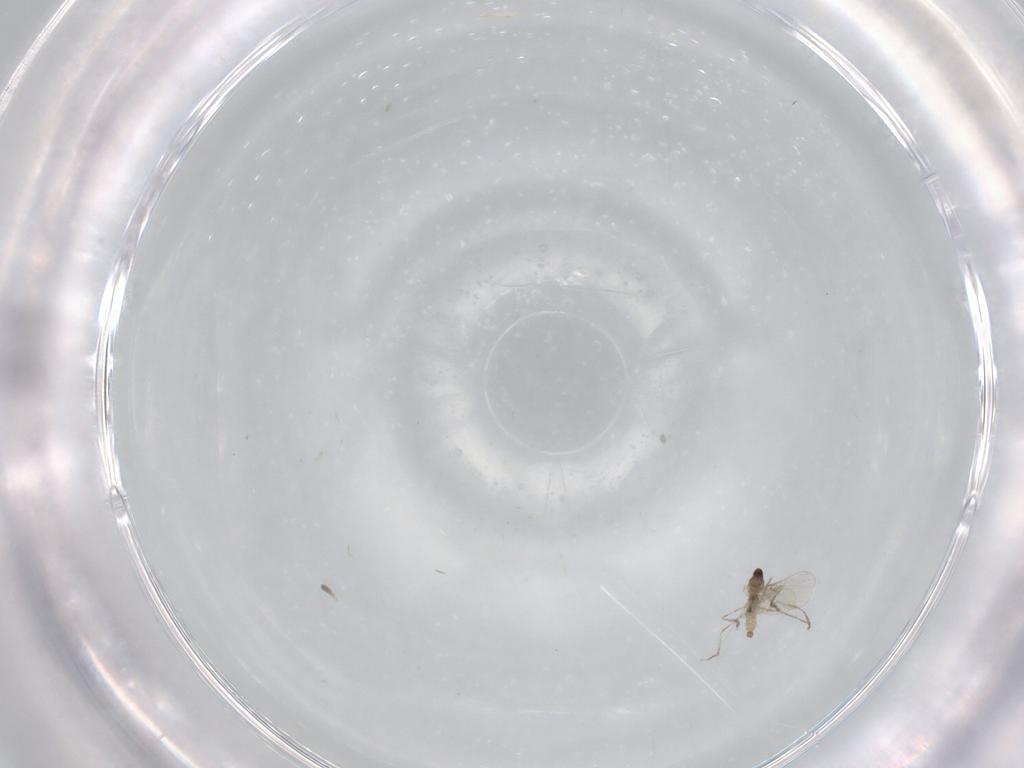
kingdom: Animalia
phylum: Arthropoda
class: Insecta
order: Diptera
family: Cecidomyiidae
